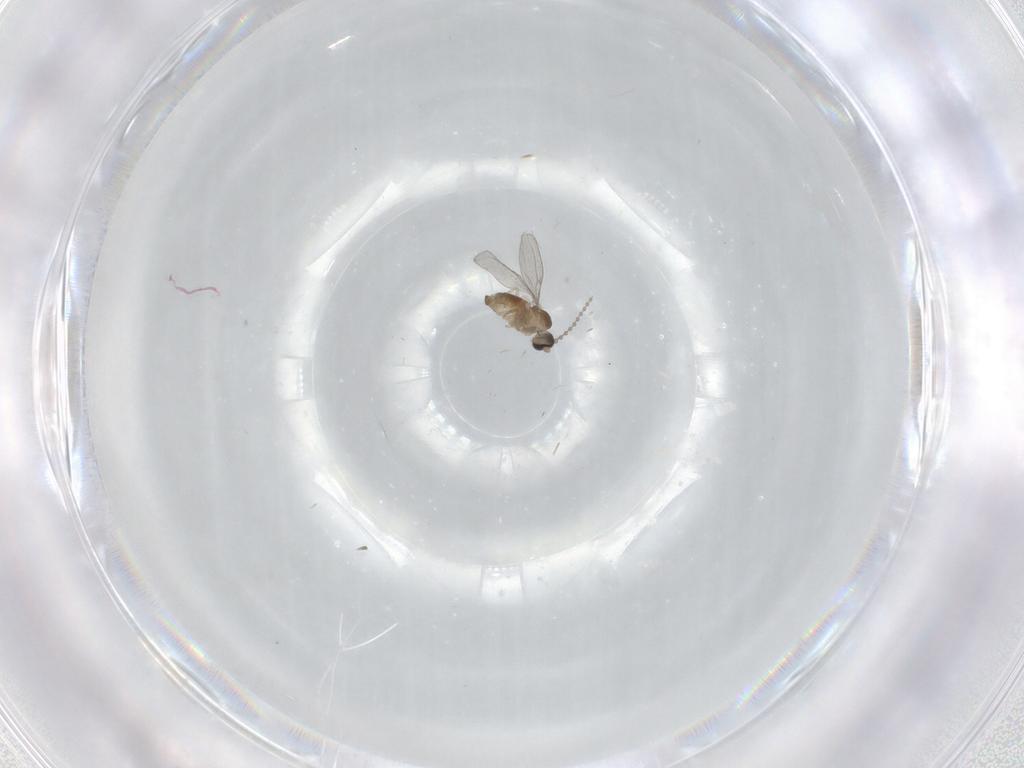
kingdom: Animalia
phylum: Arthropoda
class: Insecta
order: Diptera
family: Cecidomyiidae
